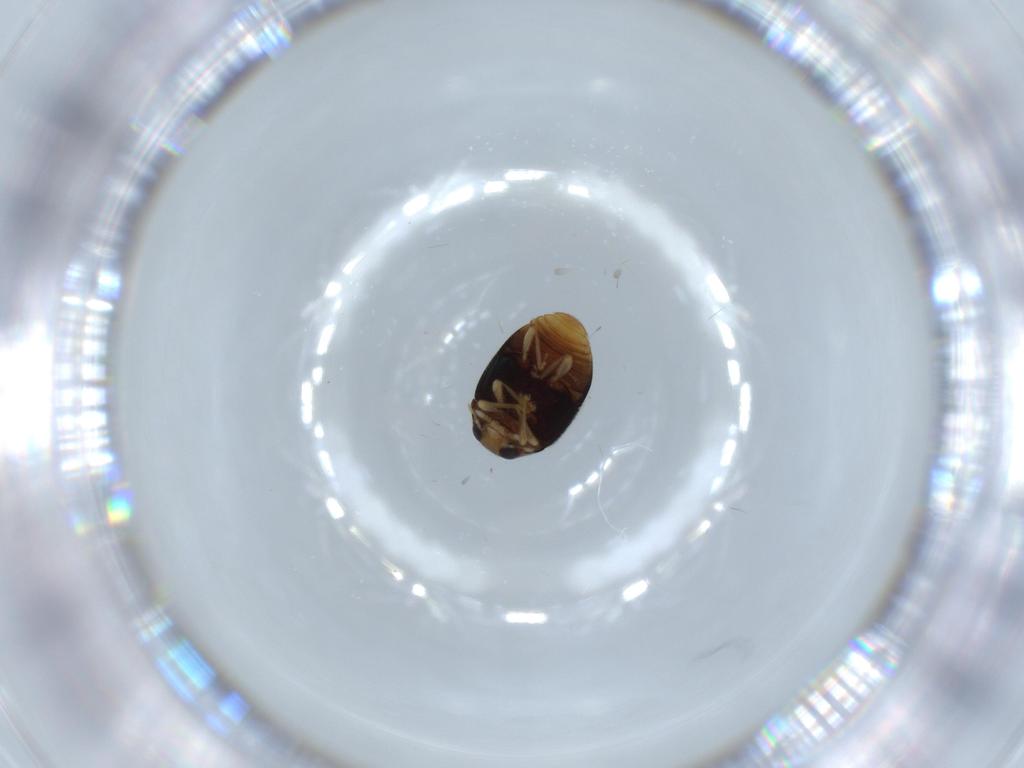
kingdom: Animalia
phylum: Arthropoda
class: Insecta
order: Coleoptera
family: Coccinellidae
